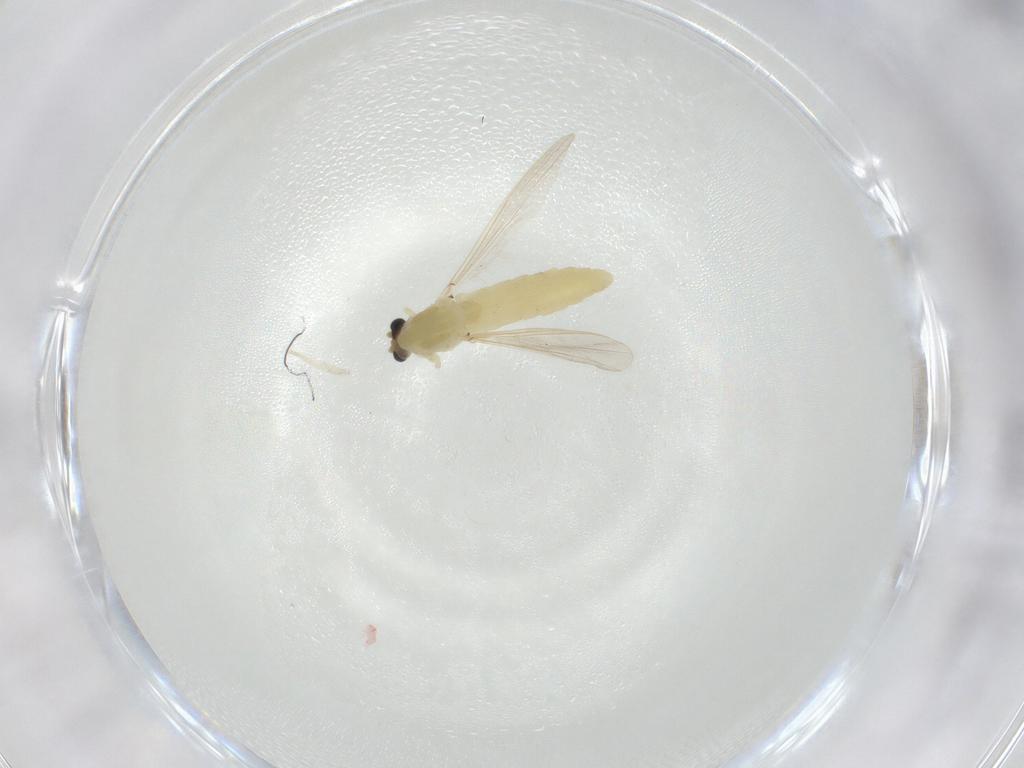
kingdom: Animalia
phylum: Arthropoda
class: Insecta
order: Diptera
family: Chironomidae
